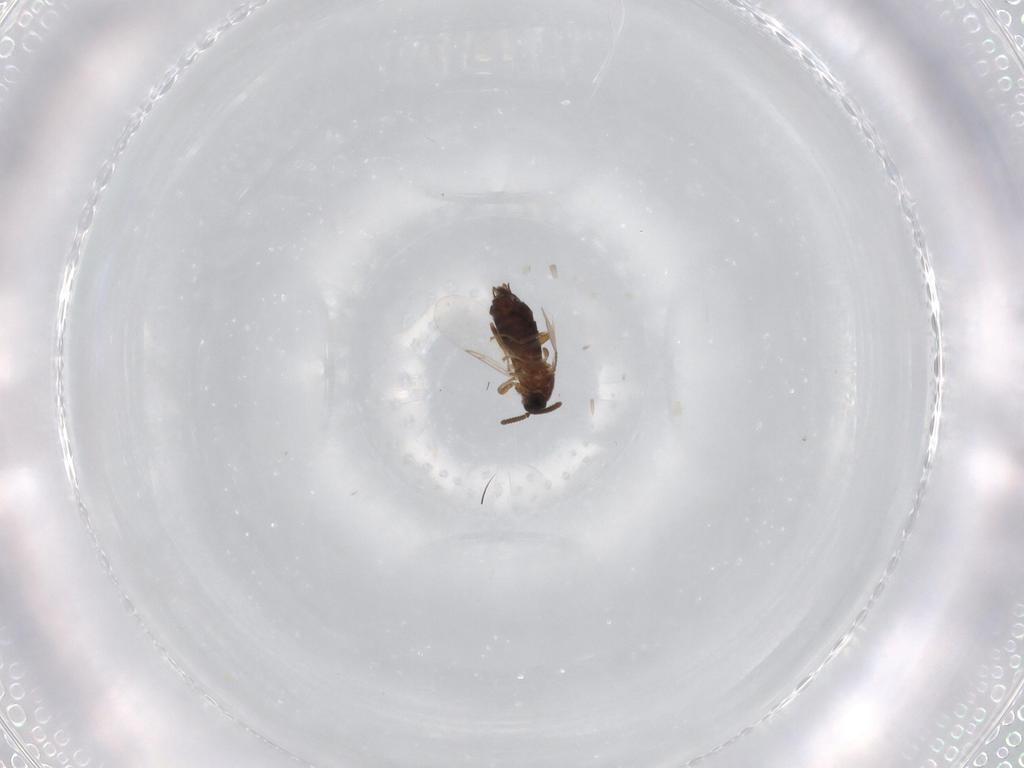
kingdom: Animalia
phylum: Arthropoda
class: Insecta
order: Diptera
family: Scatopsidae
